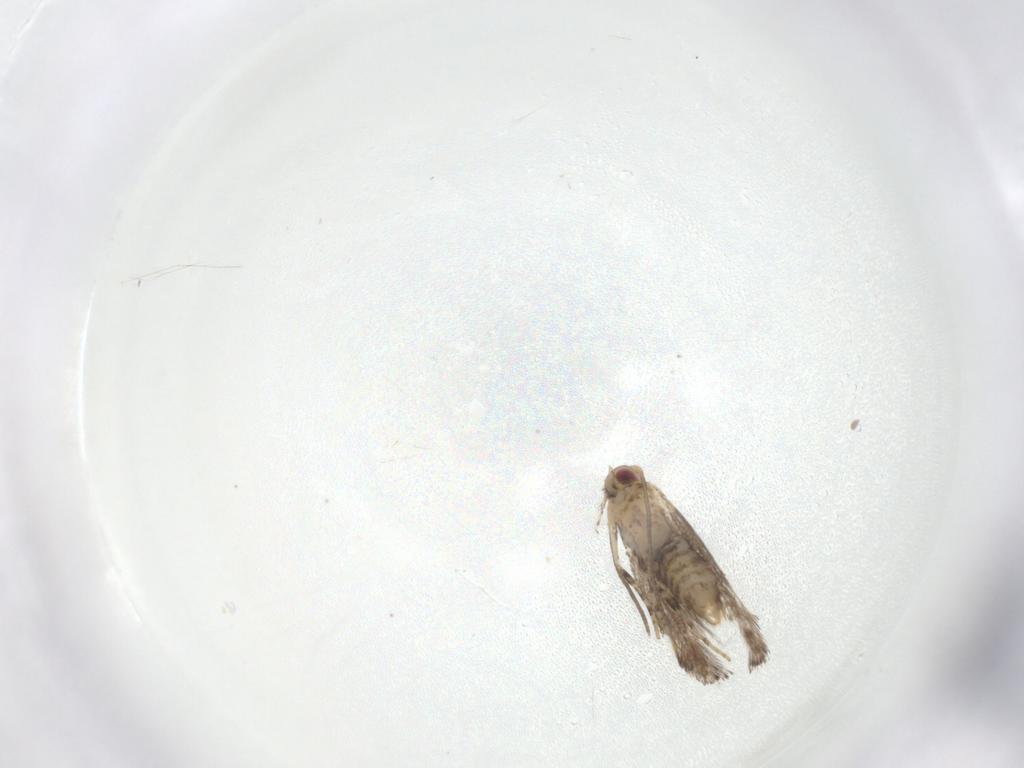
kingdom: Animalia
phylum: Arthropoda
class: Insecta
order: Lepidoptera
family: Gracillariidae
